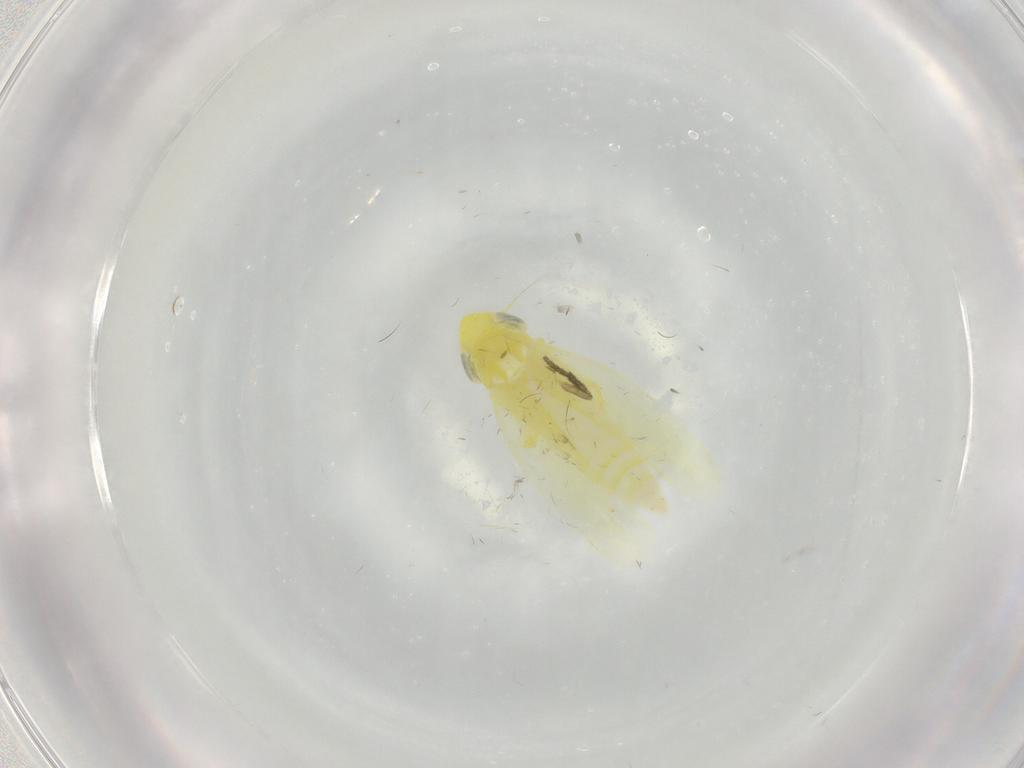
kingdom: Animalia
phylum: Arthropoda
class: Insecta
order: Hemiptera
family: Cicadellidae
